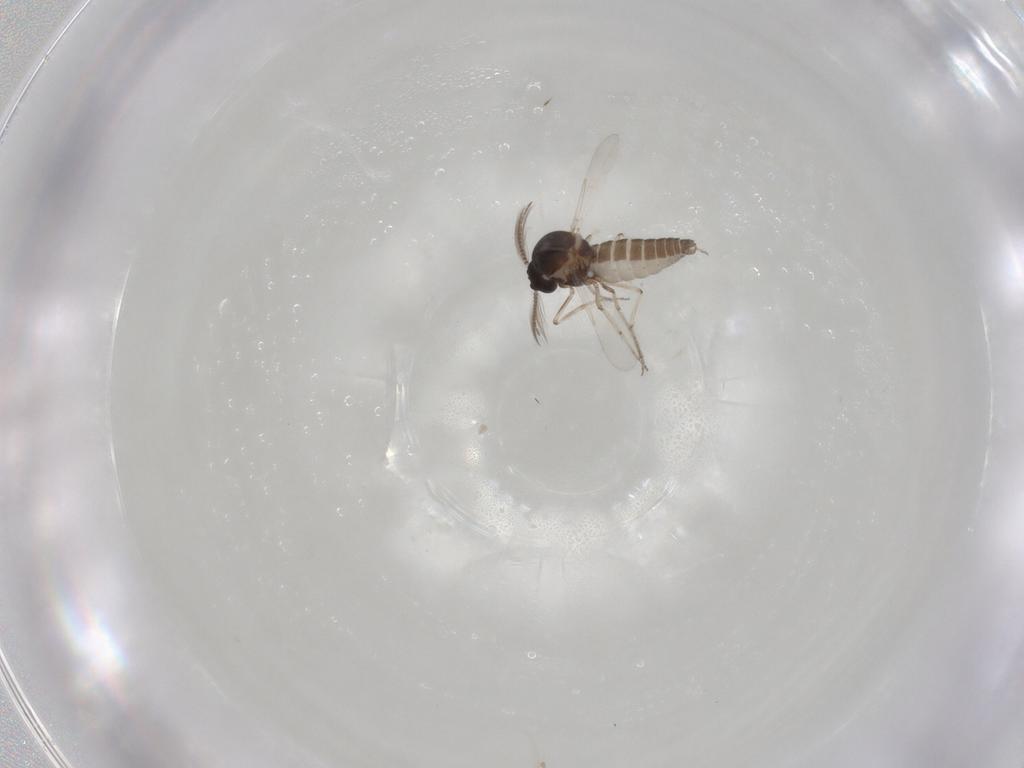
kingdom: Animalia
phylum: Arthropoda
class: Insecta
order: Diptera
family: Ceratopogonidae
